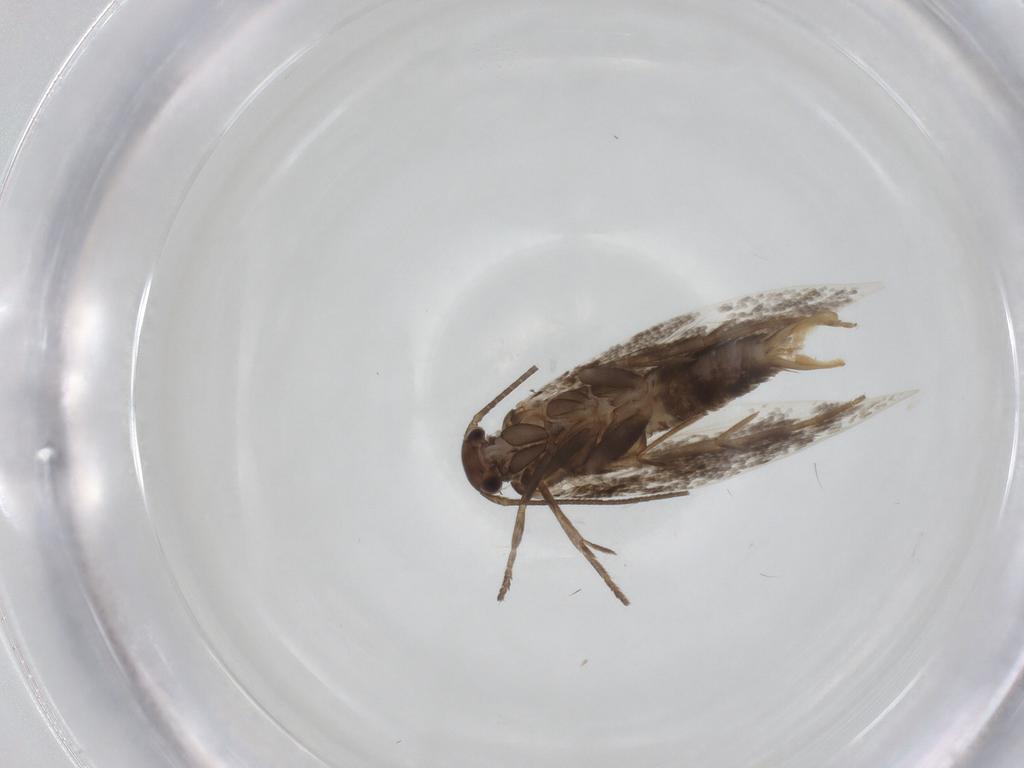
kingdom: Animalia
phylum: Arthropoda
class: Insecta
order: Lepidoptera
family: Elachistidae
